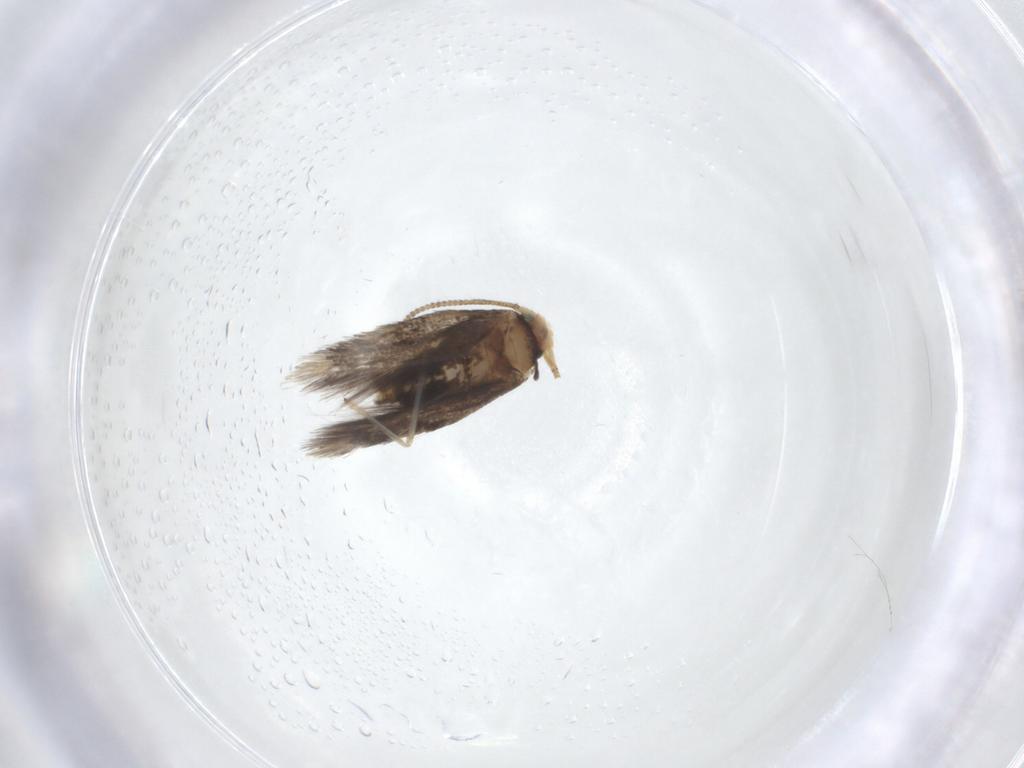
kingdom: Animalia
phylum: Arthropoda
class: Insecta
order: Lepidoptera
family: Nepticulidae
